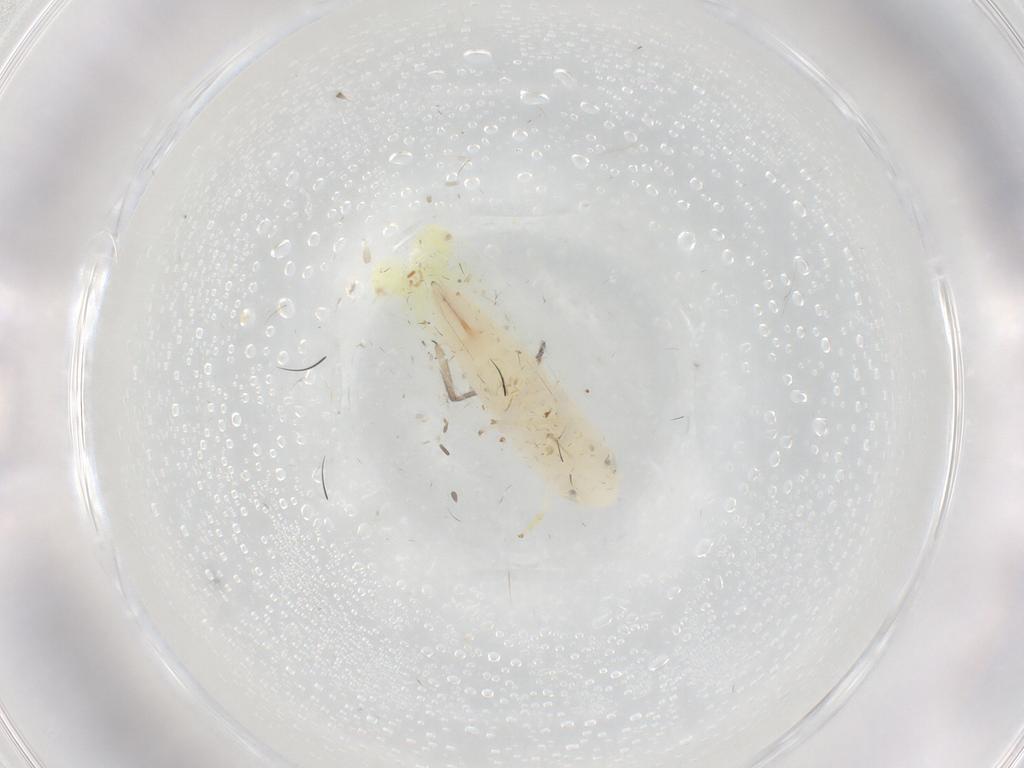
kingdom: Animalia
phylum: Arthropoda
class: Insecta
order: Hemiptera
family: Cicadellidae
